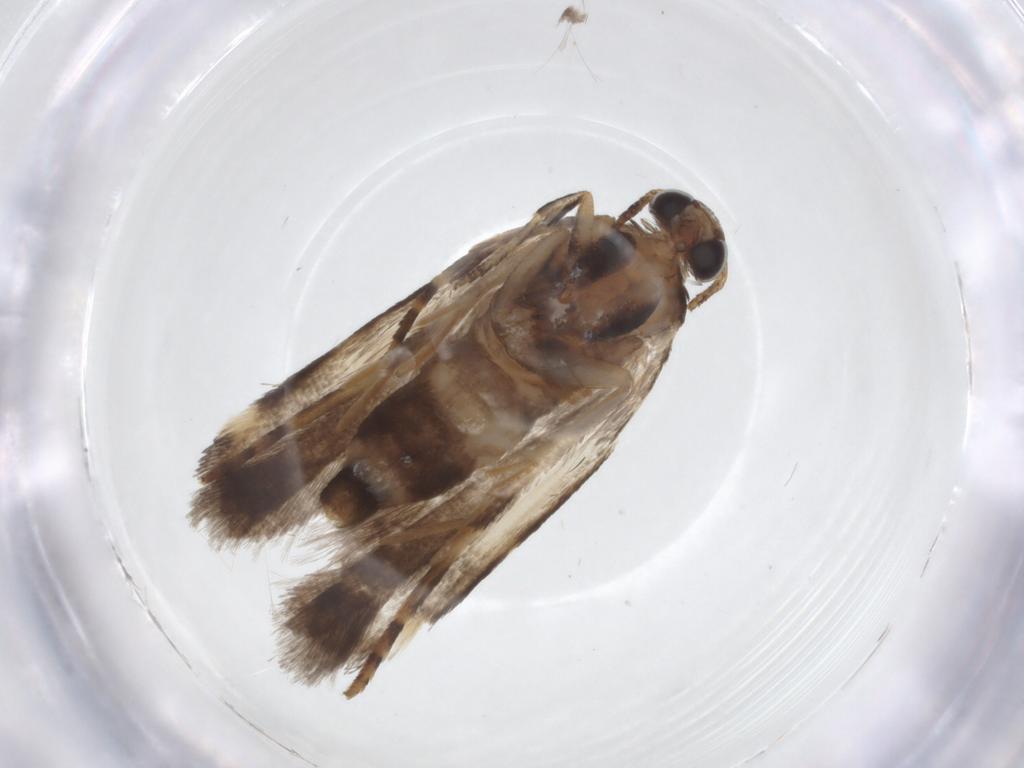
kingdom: Animalia
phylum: Arthropoda
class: Insecta
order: Lepidoptera
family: Gelechiidae
